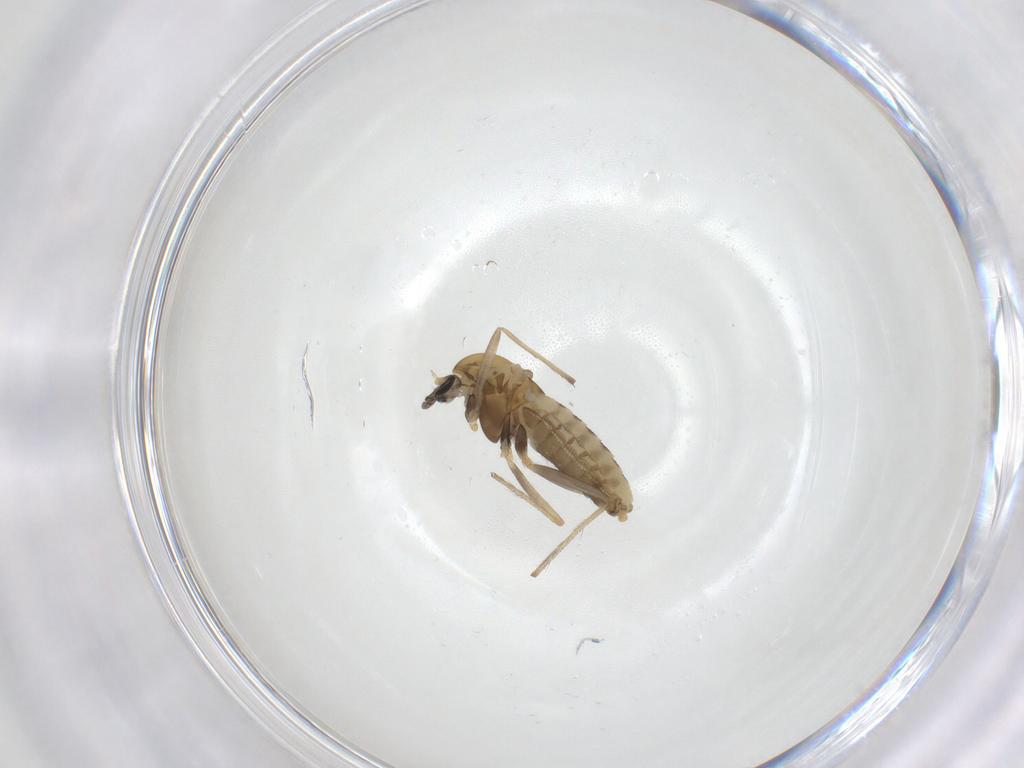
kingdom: Animalia
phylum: Arthropoda
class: Insecta
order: Diptera
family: Chironomidae
